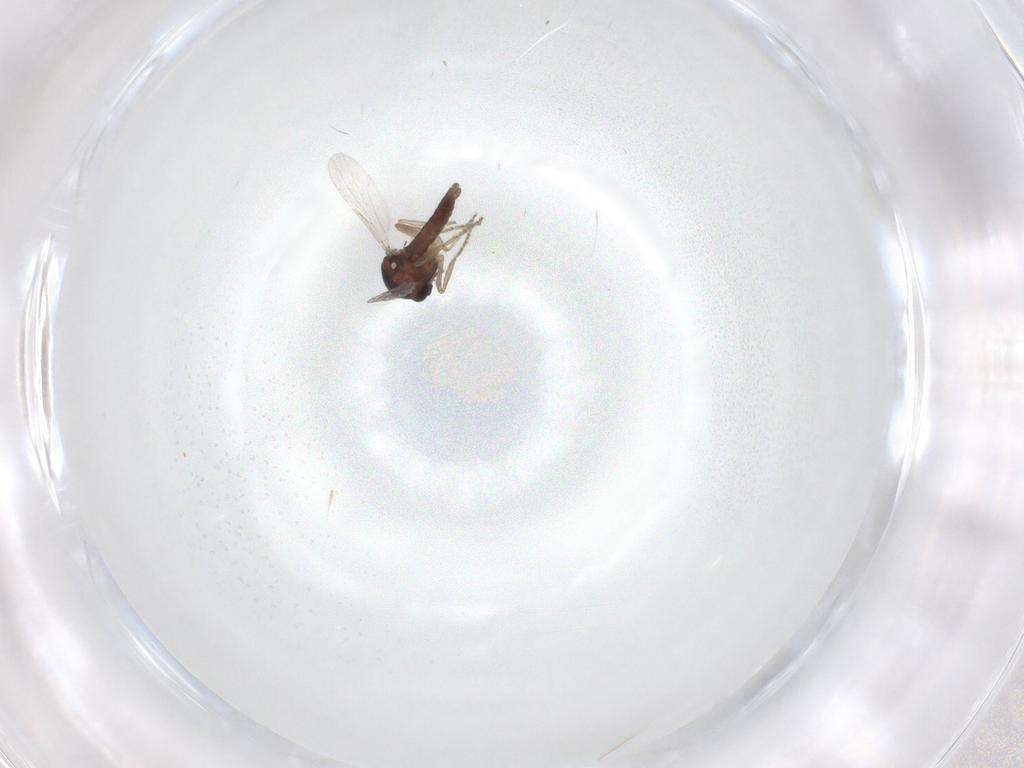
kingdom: Animalia
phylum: Arthropoda
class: Insecta
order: Diptera
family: Ceratopogonidae
